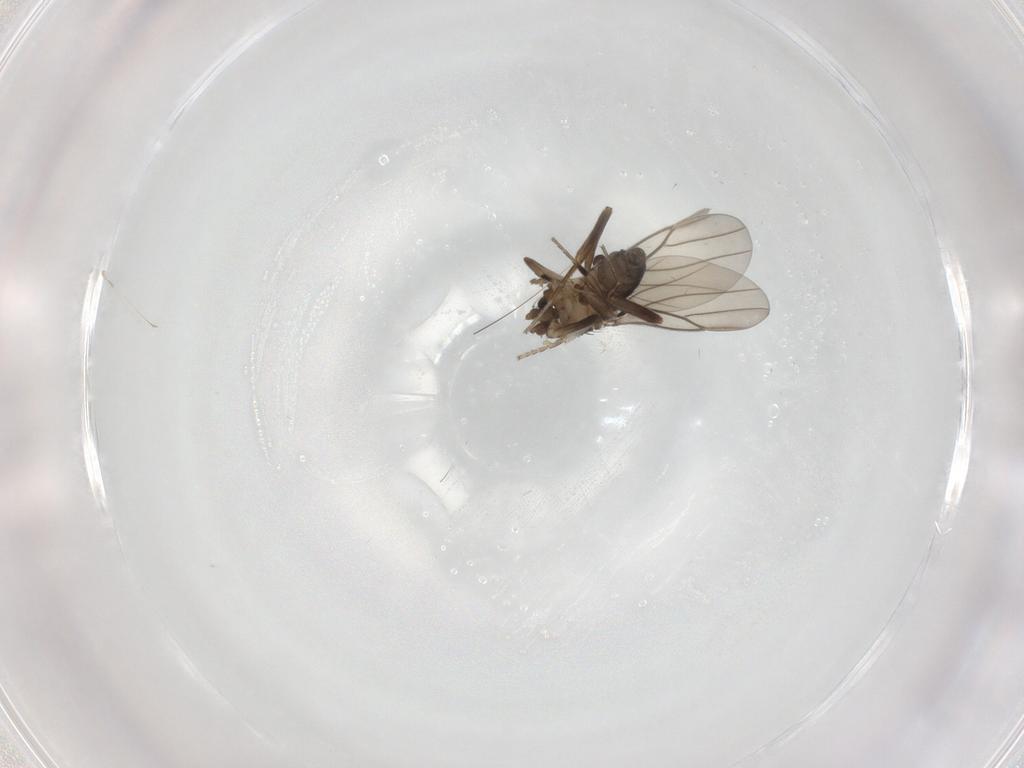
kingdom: Animalia
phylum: Arthropoda
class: Insecta
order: Diptera
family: Phoridae
